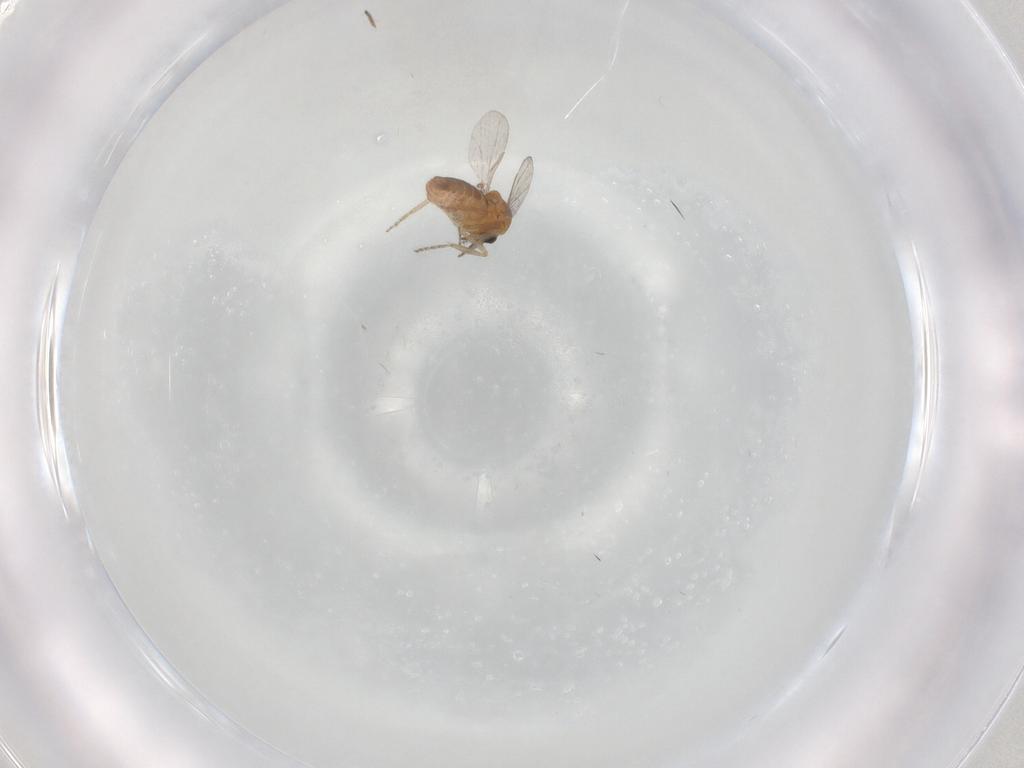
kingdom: Animalia
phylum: Arthropoda
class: Insecta
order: Diptera
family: Ceratopogonidae
